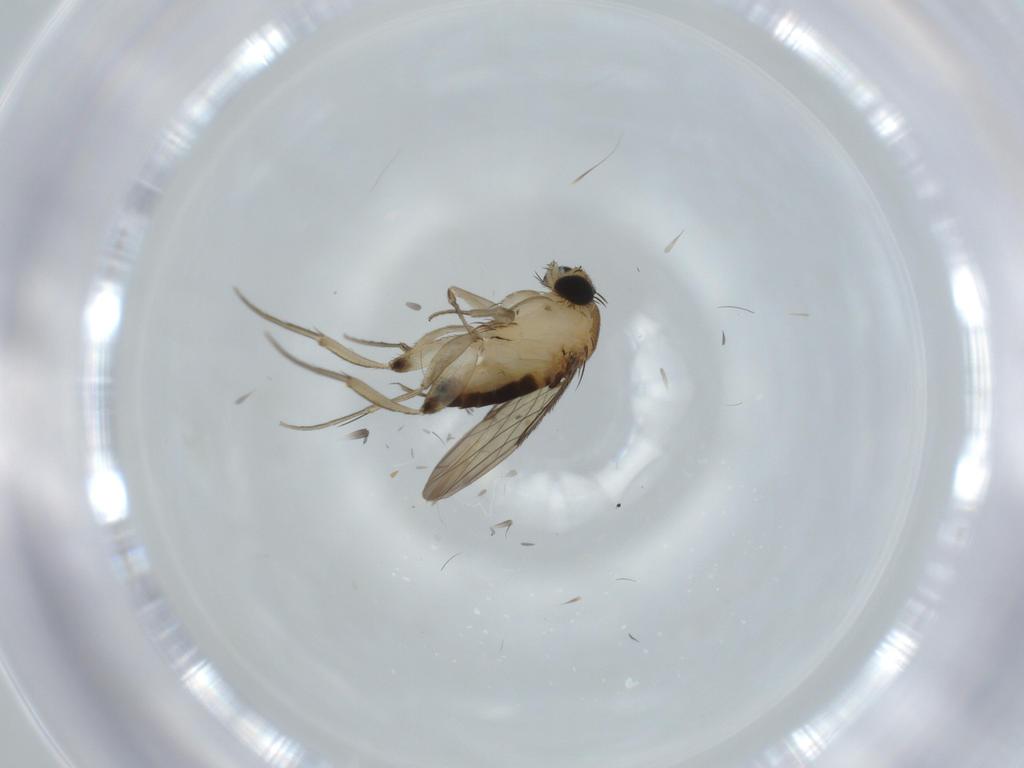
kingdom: Animalia
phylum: Arthropoda
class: Insecta
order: Diptera
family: Phoridae
